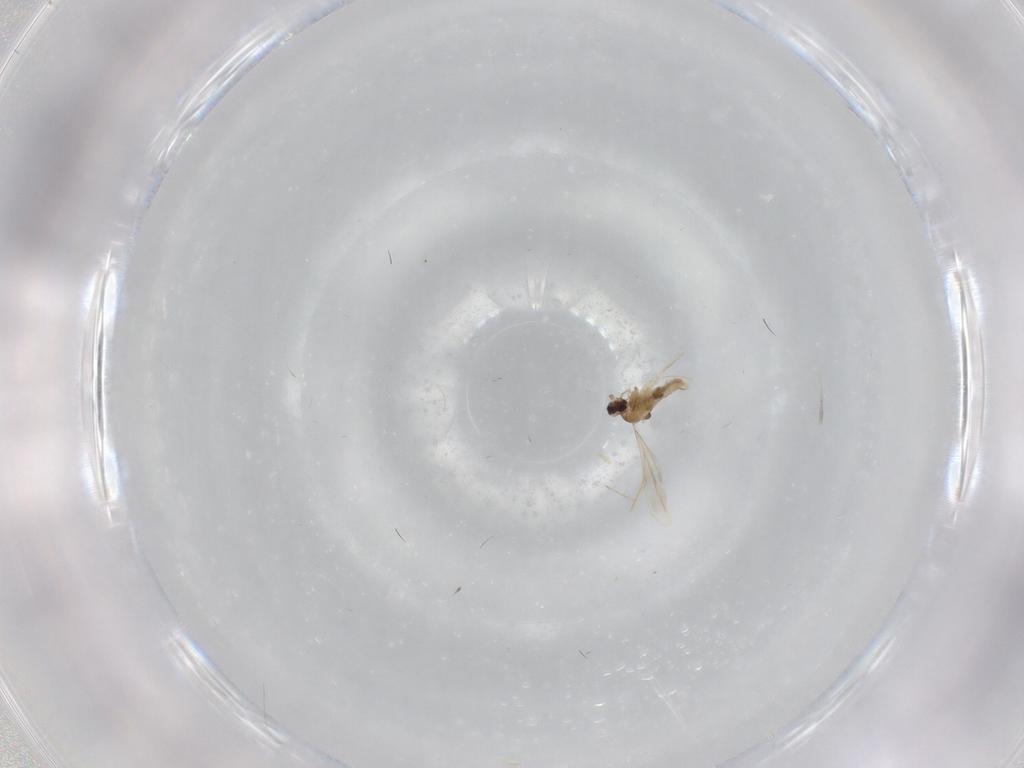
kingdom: Animalia
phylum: Arthropoda
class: Insecta
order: Diptera
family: Mycetophilidae
